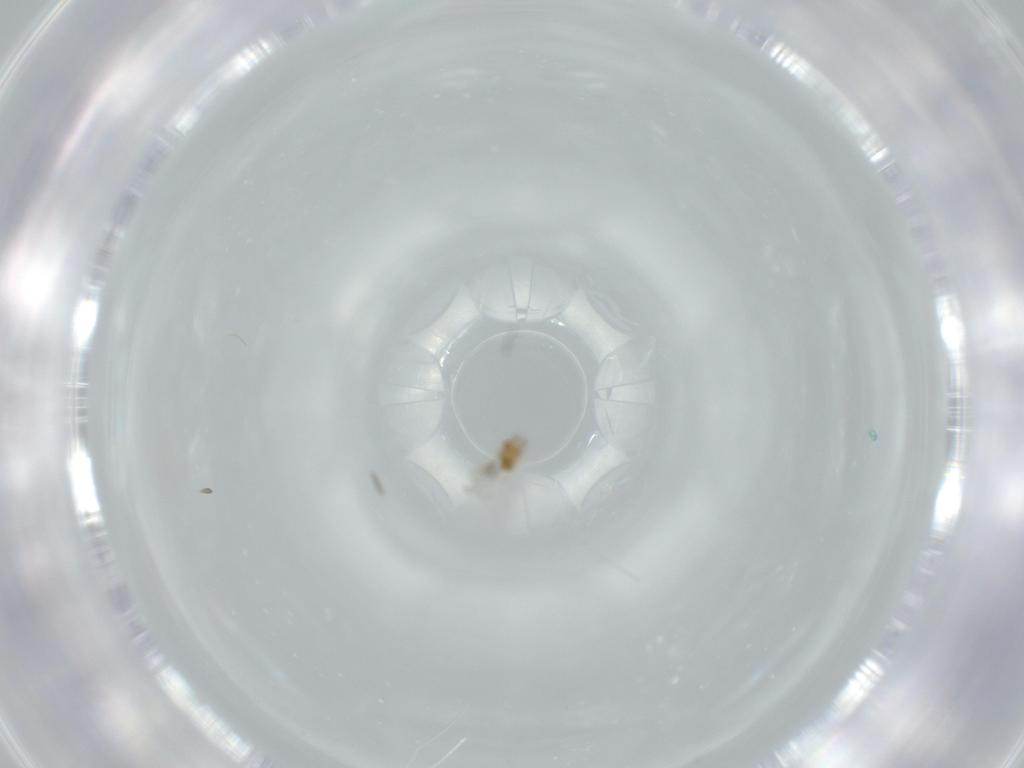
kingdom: Animalia
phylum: Arthropoda
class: Insecta
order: Hymenoptera
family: Trichogrammatidae
